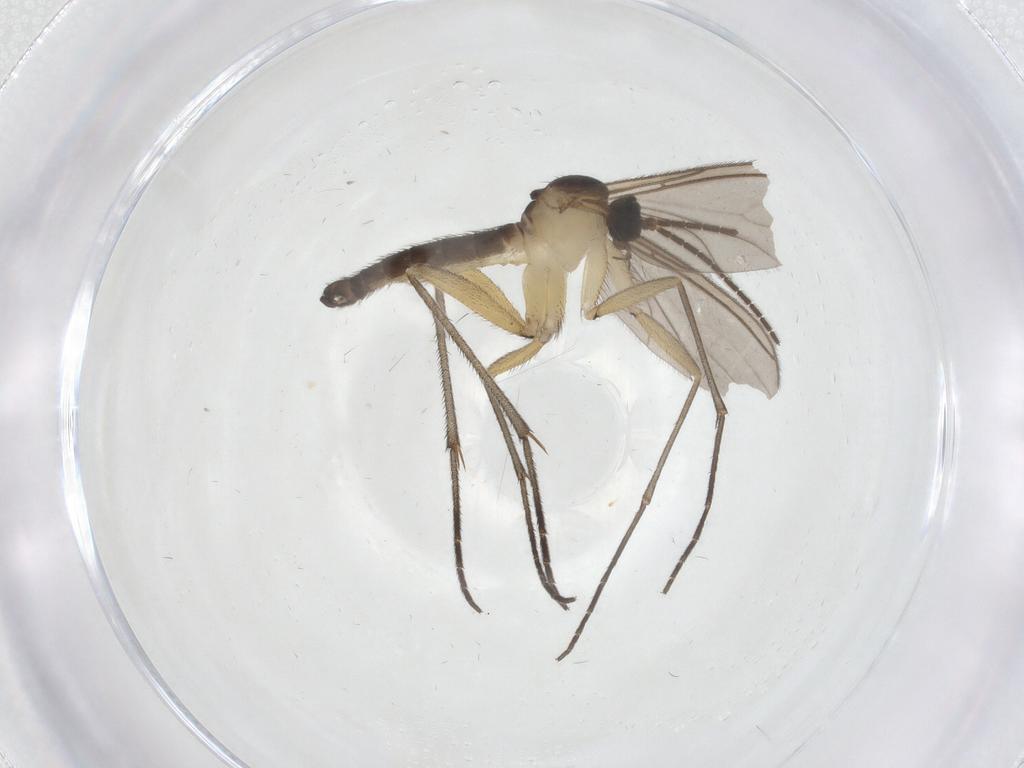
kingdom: Animalia
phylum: Arthropoda
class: Insecta
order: Diptera
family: Sciaridae
